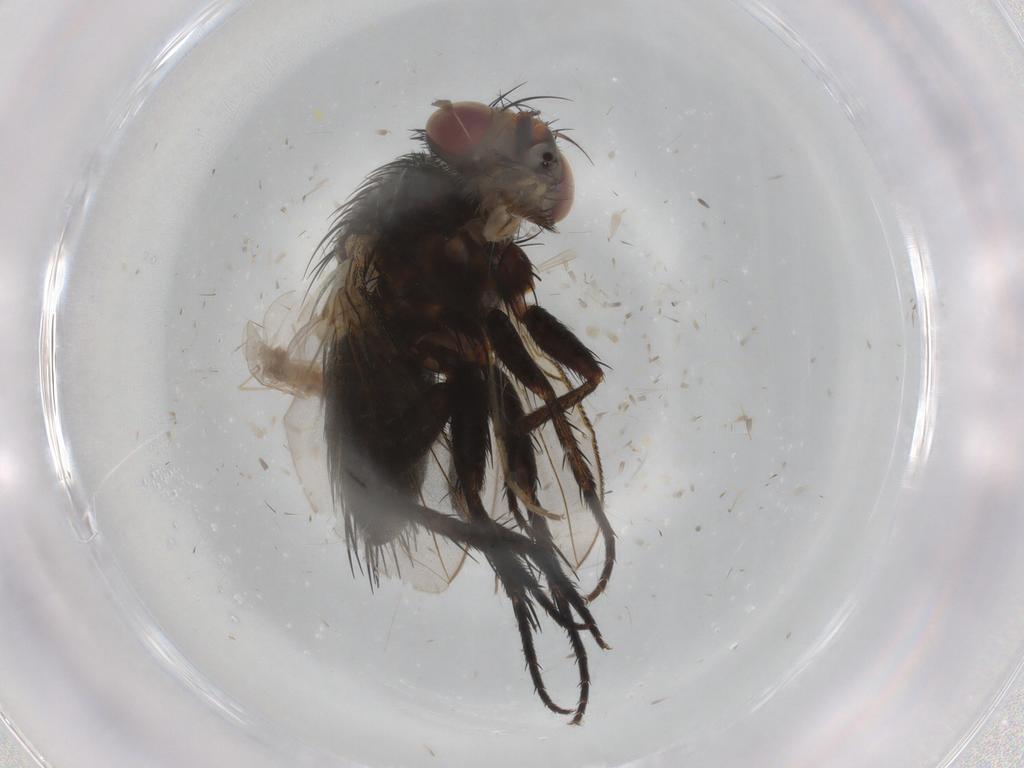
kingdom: Animalia
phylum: Arthropoda
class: Insecta
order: Diptera
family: Tachinidae
